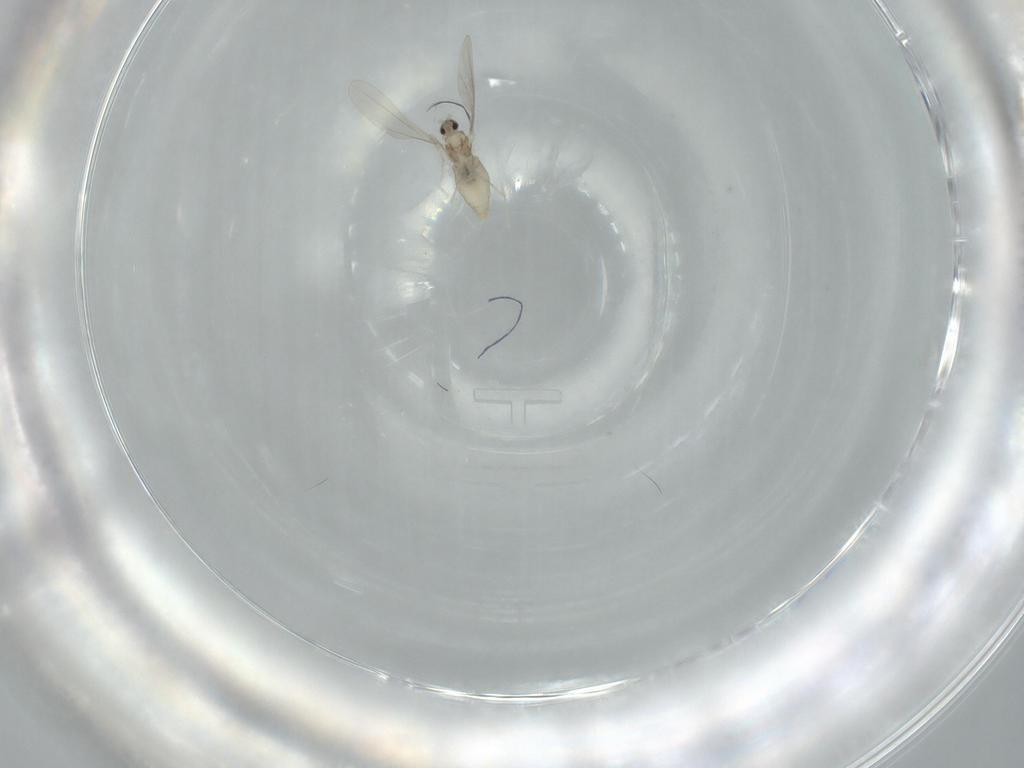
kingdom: Animalia
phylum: Arthropoda
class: Insecta
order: Diptera
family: Cecidomyiidae
